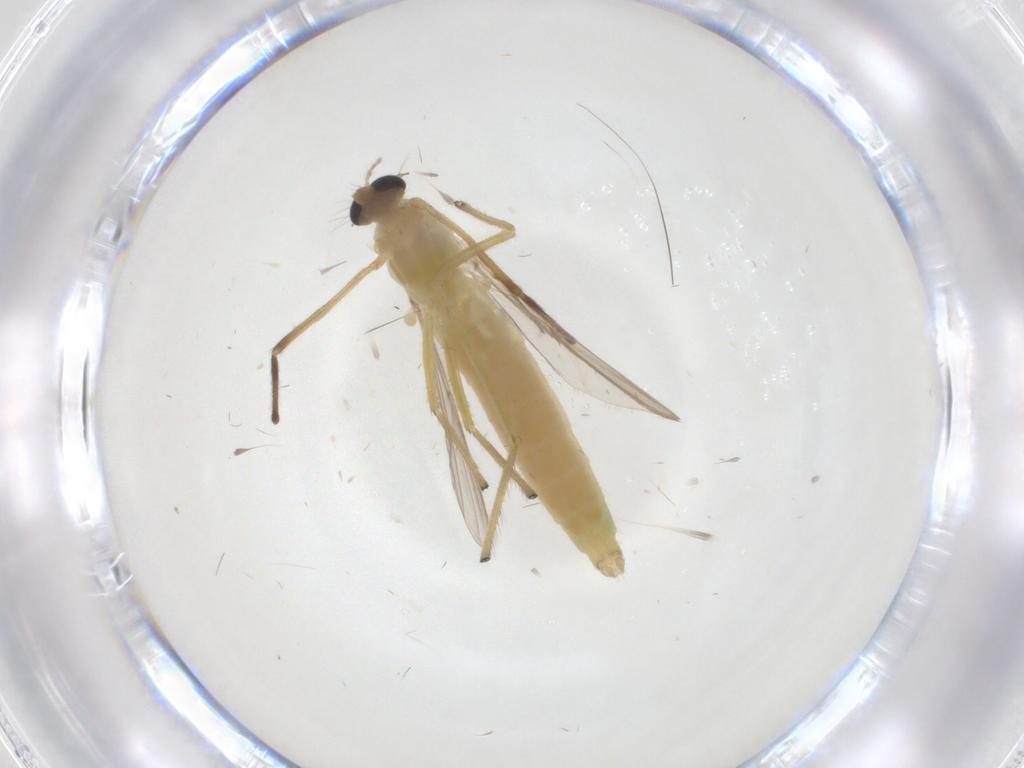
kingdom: Animalia
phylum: Arthropoda
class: Insecta
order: Diptera
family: Chironomidae
